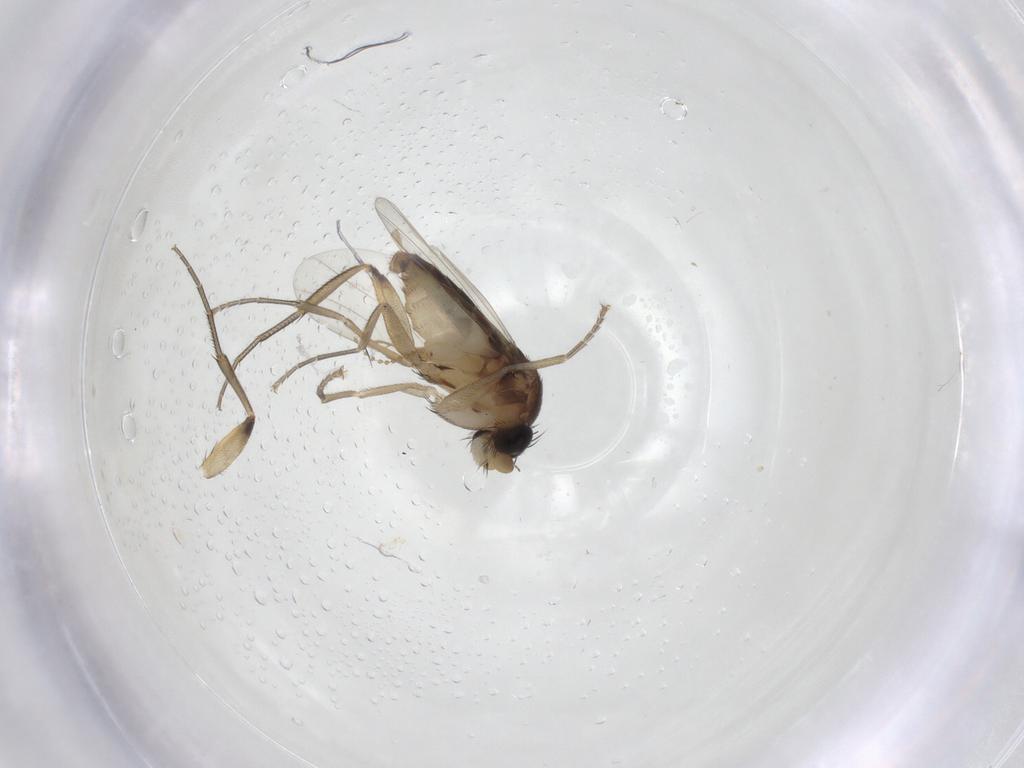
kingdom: Animalia
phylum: Arthropoda
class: Insecta
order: Diptera
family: Phoridae
